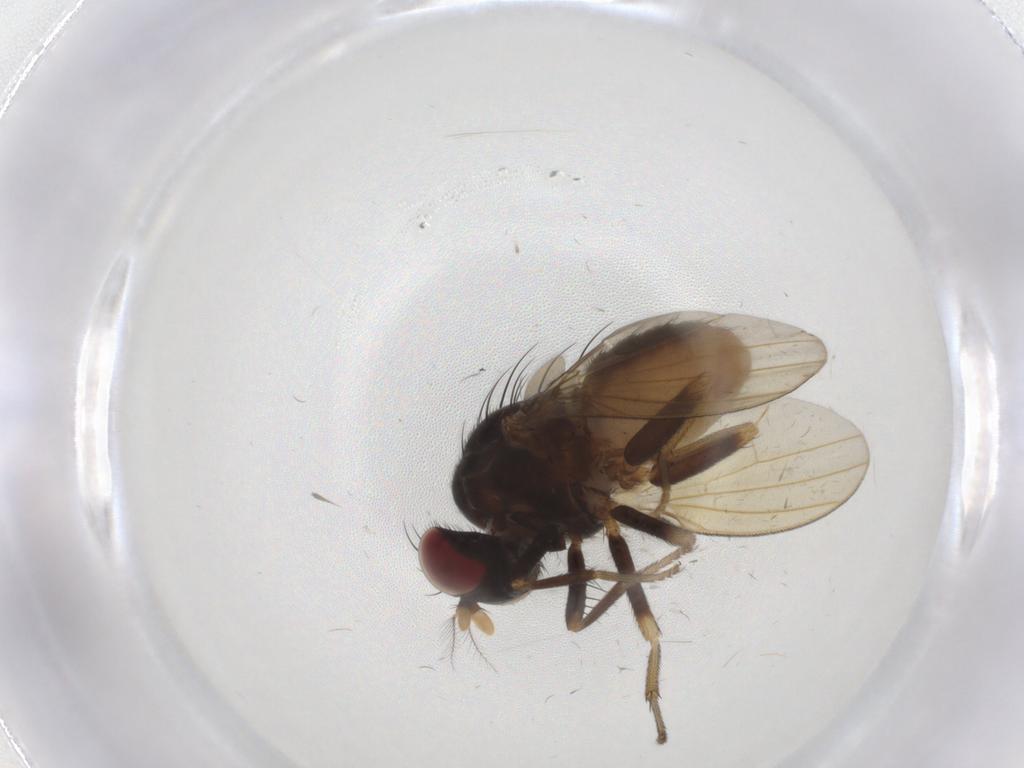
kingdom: Animalia
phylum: Arthropoda
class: Insecta
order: Diptera
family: Lauxaniidae
